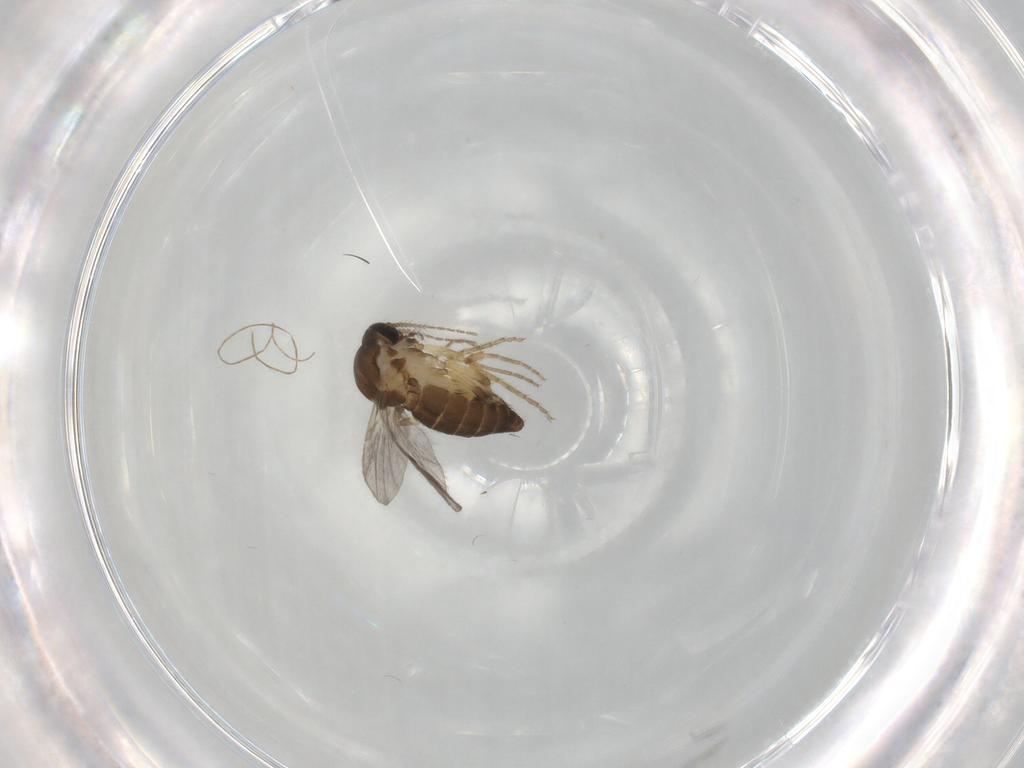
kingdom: Animalia
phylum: Arthropoda
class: Insecta
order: Diptera
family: Ceratopogonidae
